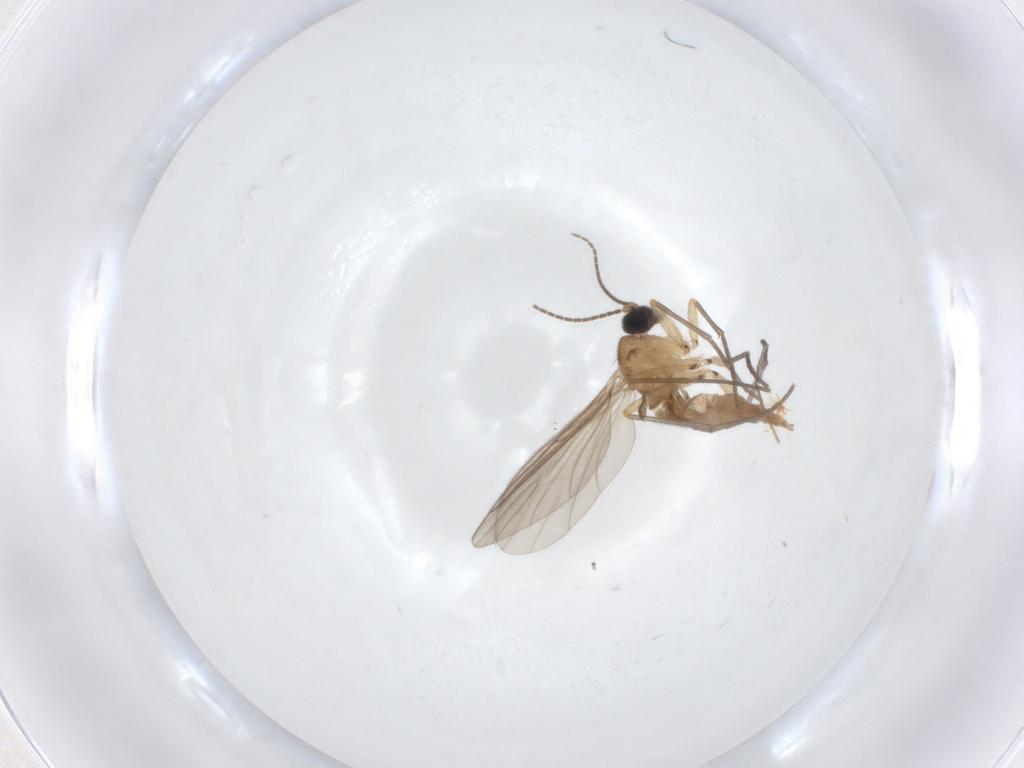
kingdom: Animalia
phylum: Arthropoda
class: Insecta
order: Diptera
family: Sciaridae
